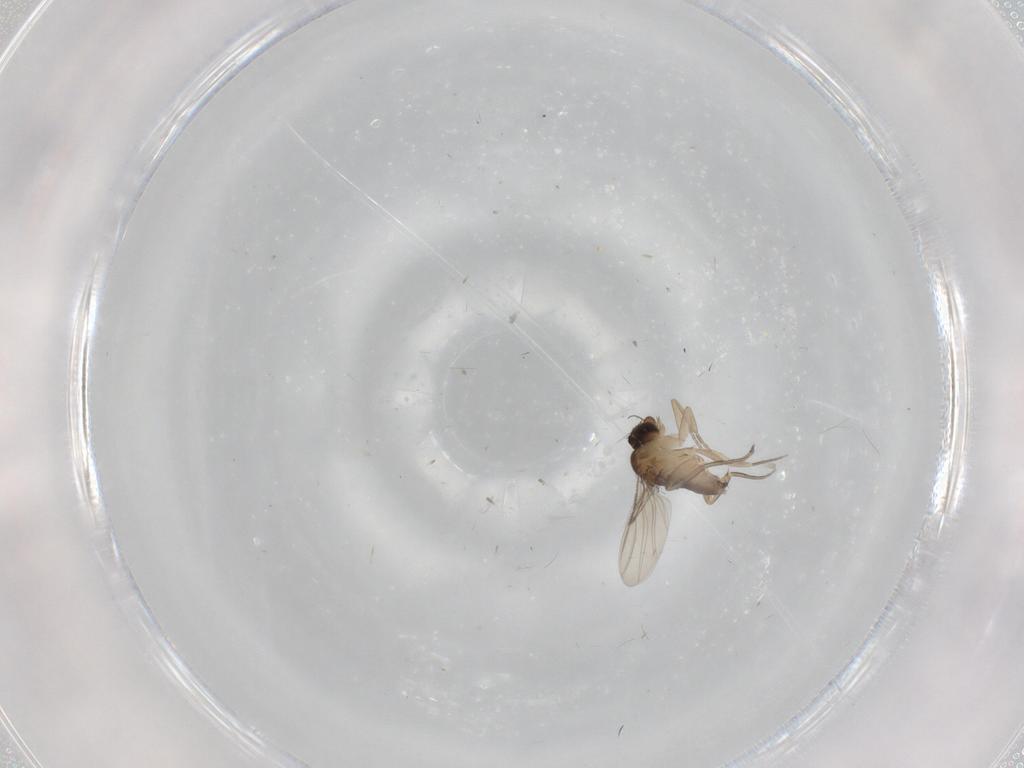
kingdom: Animalia
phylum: Arthropoda
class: Insecta
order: Diptera
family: Phoridae
